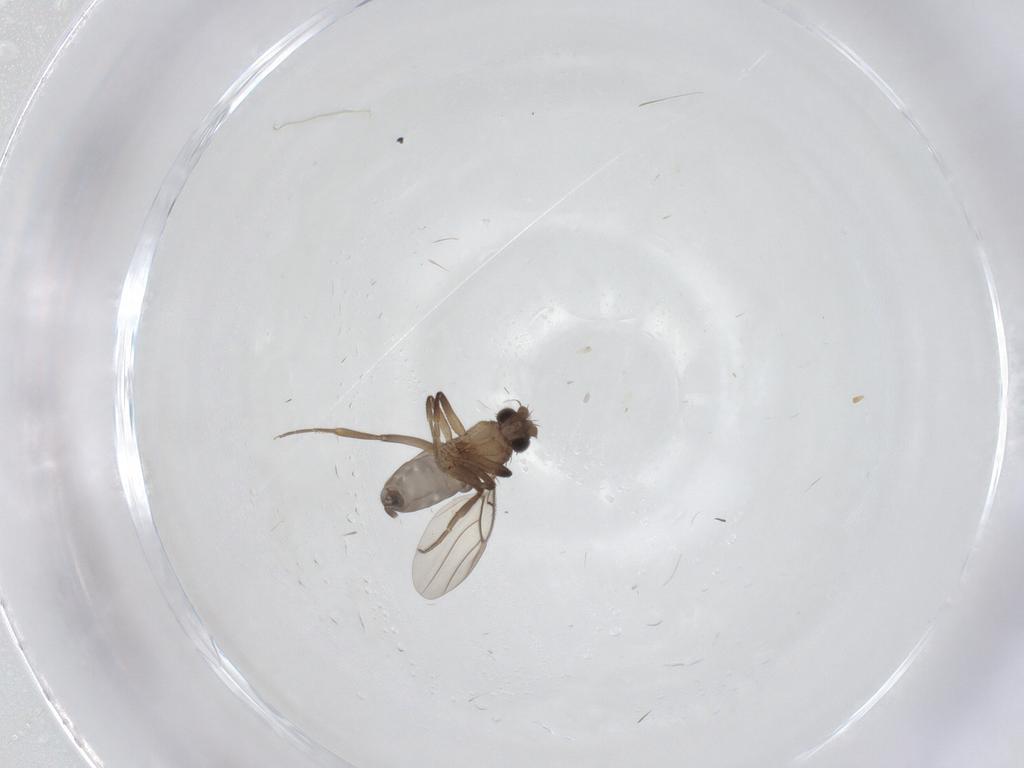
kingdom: Animalia
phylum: Arthropoda
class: Insecta
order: Diptera
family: Phoridae
